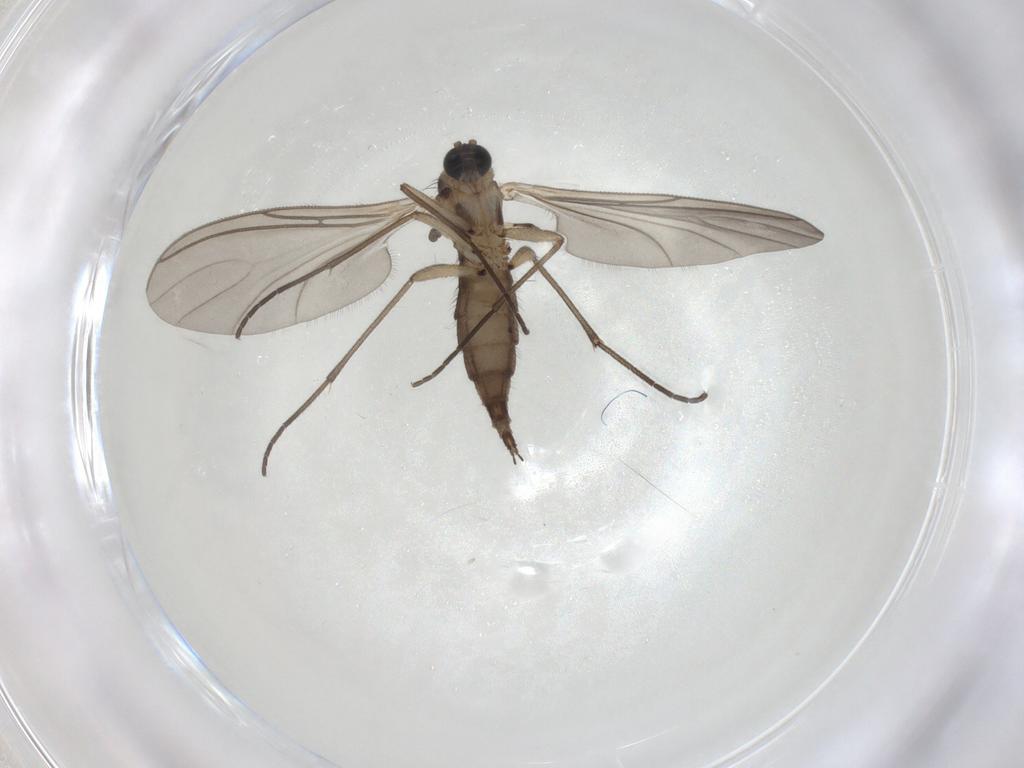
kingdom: Animalia
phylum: Arthropoda
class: Insecta
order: Diptera
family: Sciaridae
